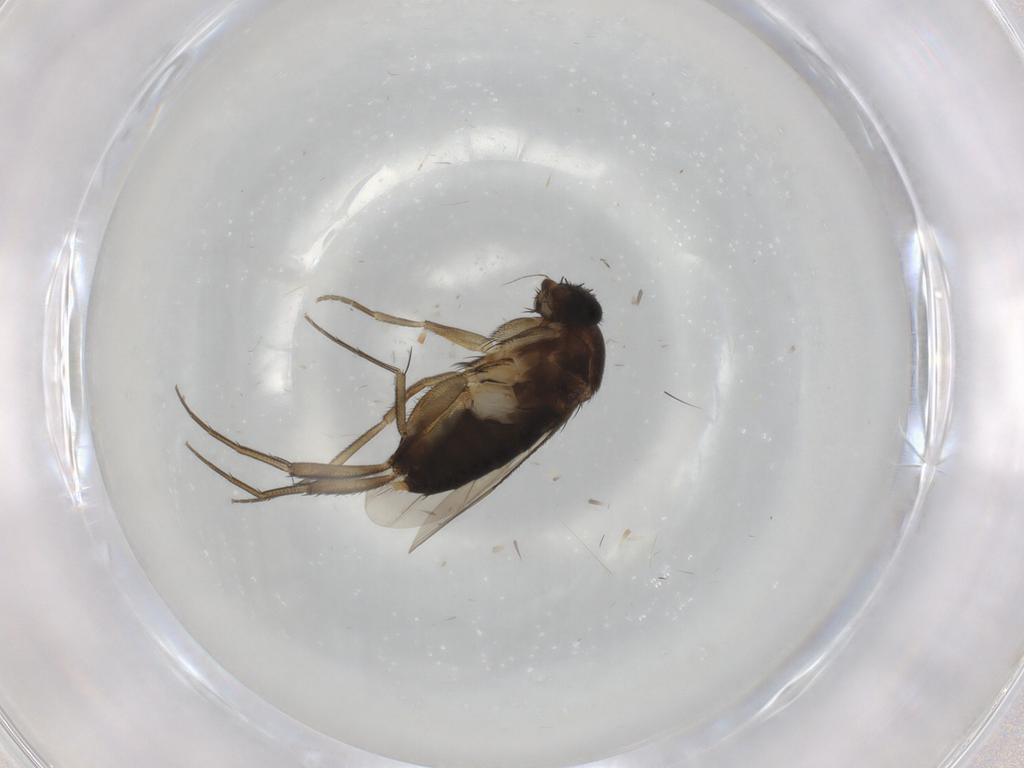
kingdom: Animalia
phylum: Arthropoda
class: Insecta
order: Diptera
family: Phoridae
